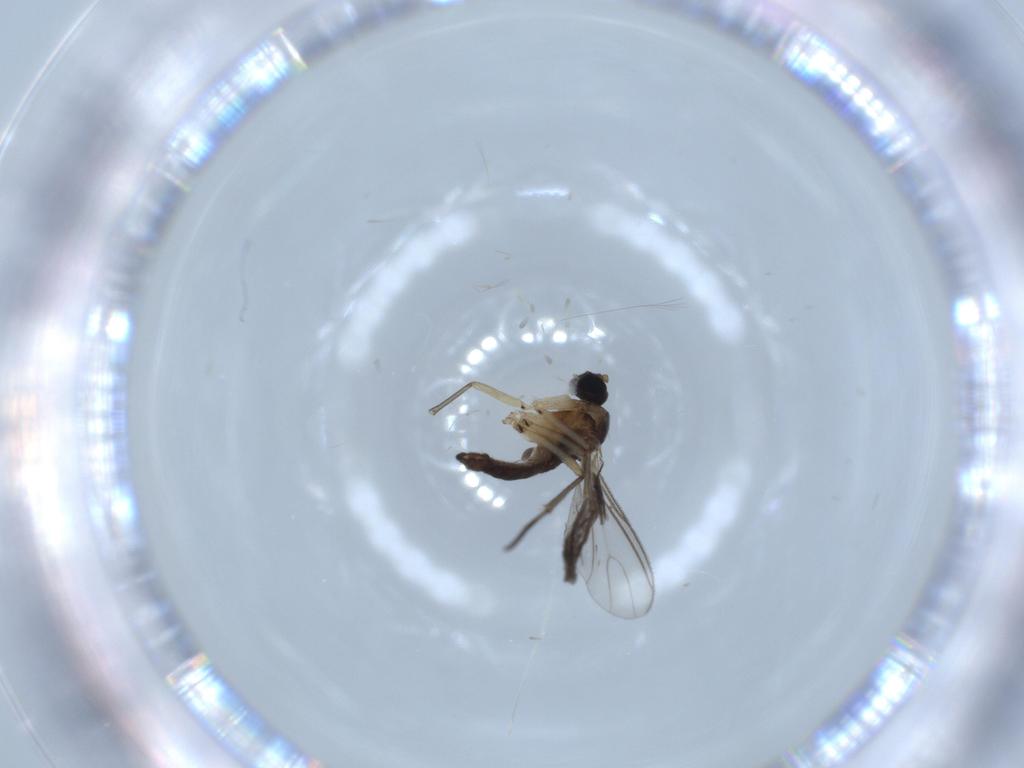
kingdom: Animalia
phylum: Arthropoda
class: Insecta
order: Diptera
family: Sciaridae
